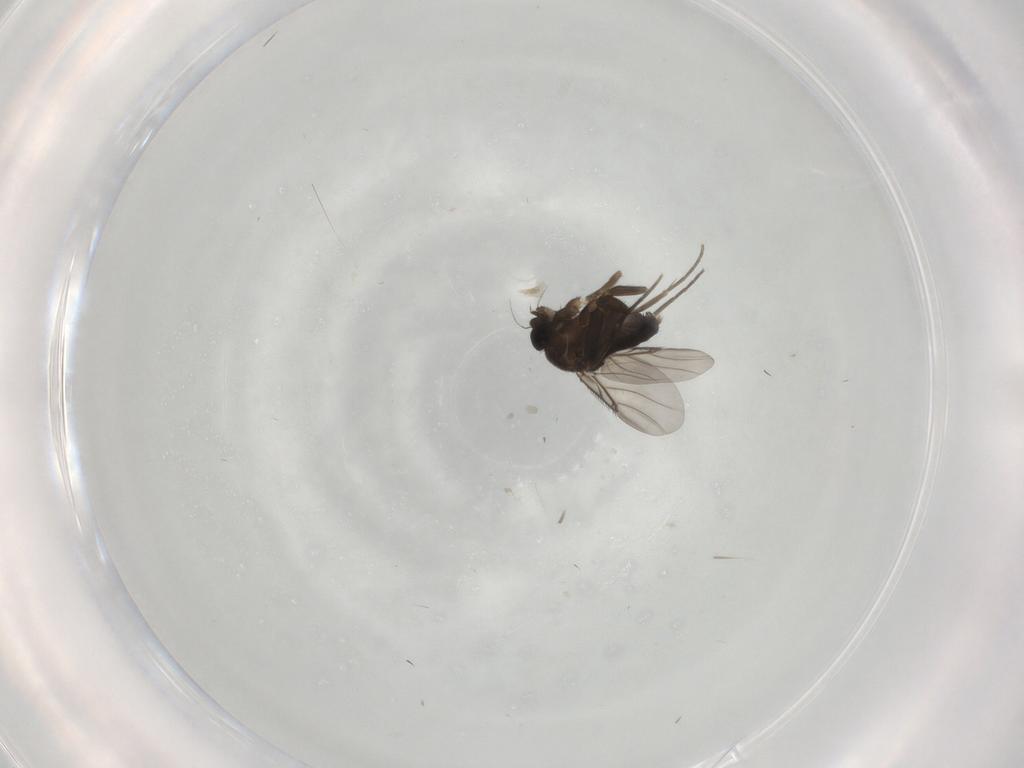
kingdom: Animalia
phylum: Arthropoda
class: Insecta
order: Diptera
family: Cecidomyiidae
